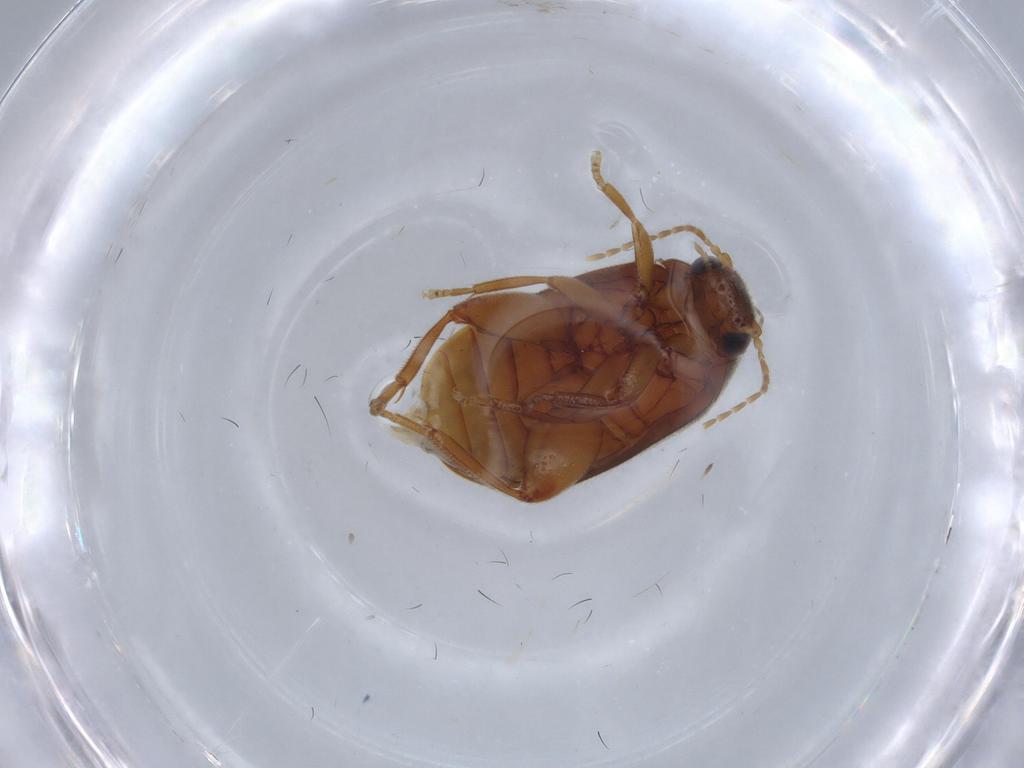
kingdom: Animalia
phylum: Arthropoda
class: Insecta
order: Coleoptera
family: Scirtidae
